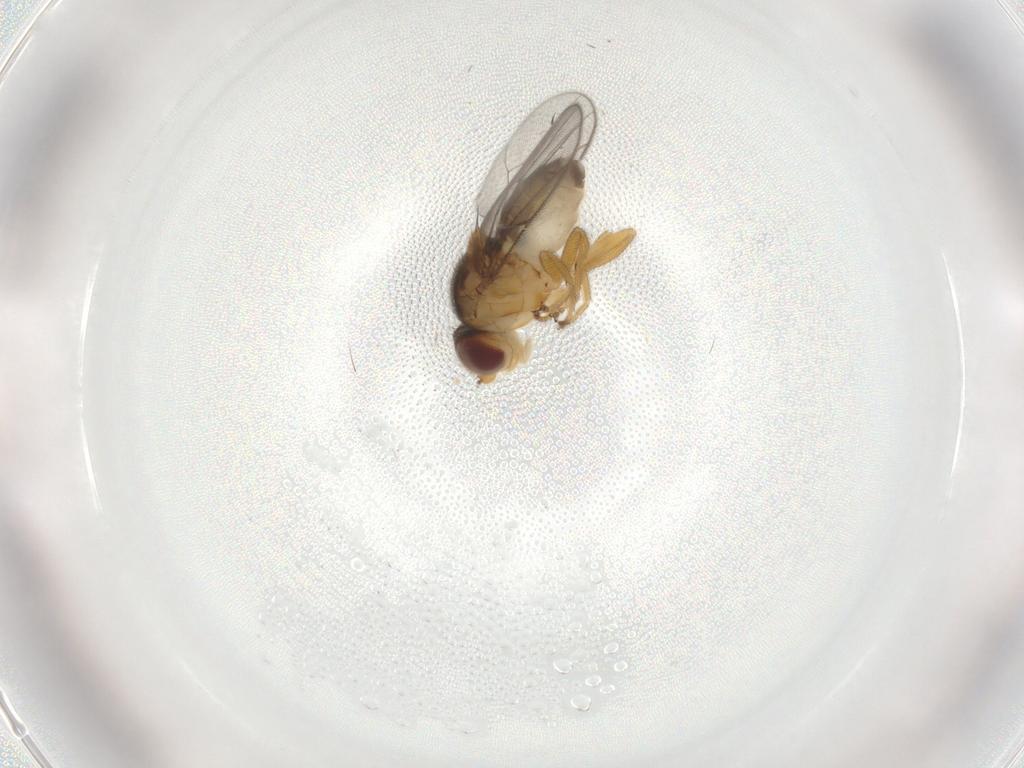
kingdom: Animalia
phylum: Arthropoda
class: Insecta
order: Diptera
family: Chloropidae
